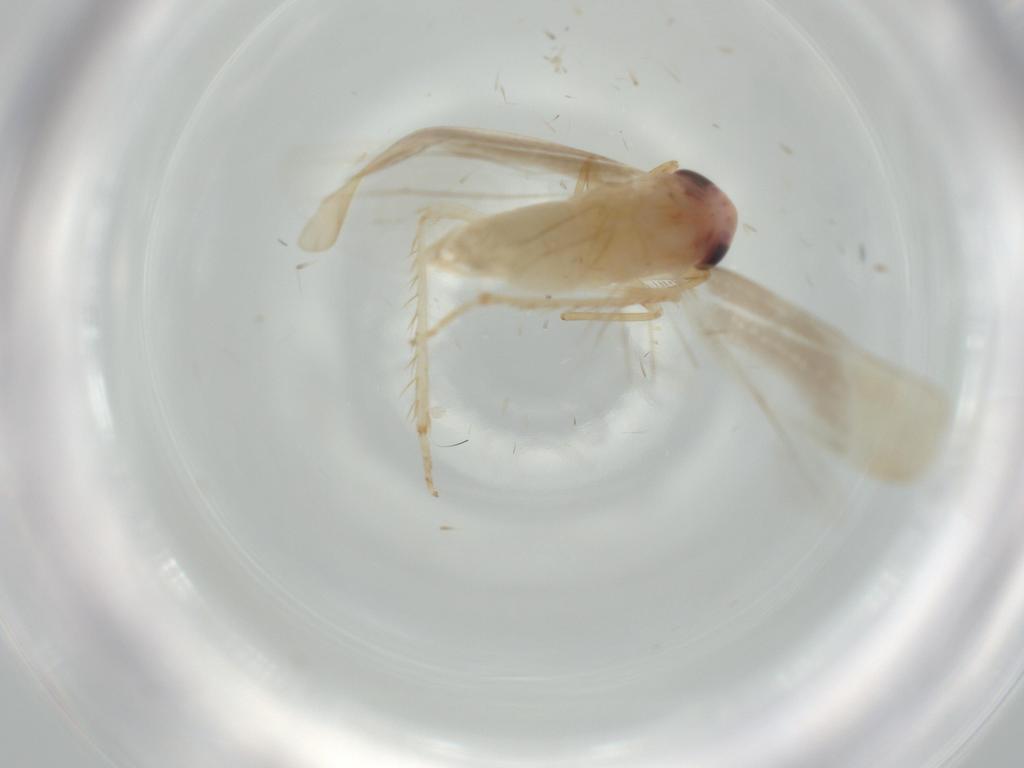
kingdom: Animalia
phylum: Arthropoda
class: Insecta
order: Hemiptera
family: Cicadellidae
